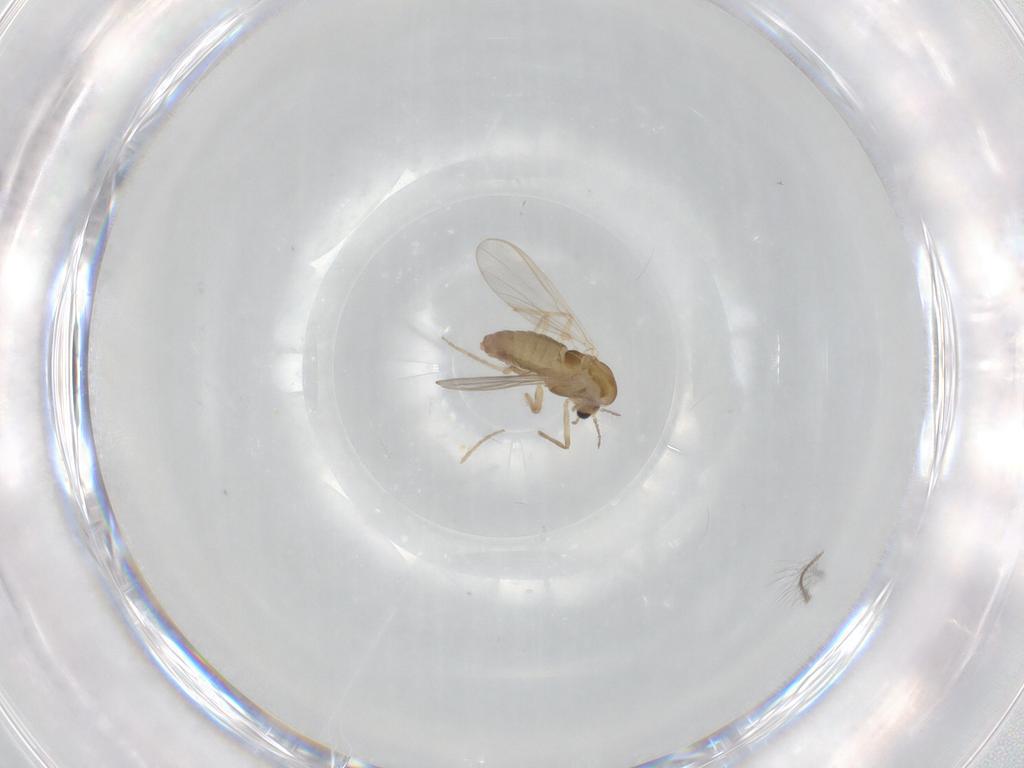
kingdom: Animalia
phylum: Arthropoda
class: Insecta
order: Diptera
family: Chironomidae
